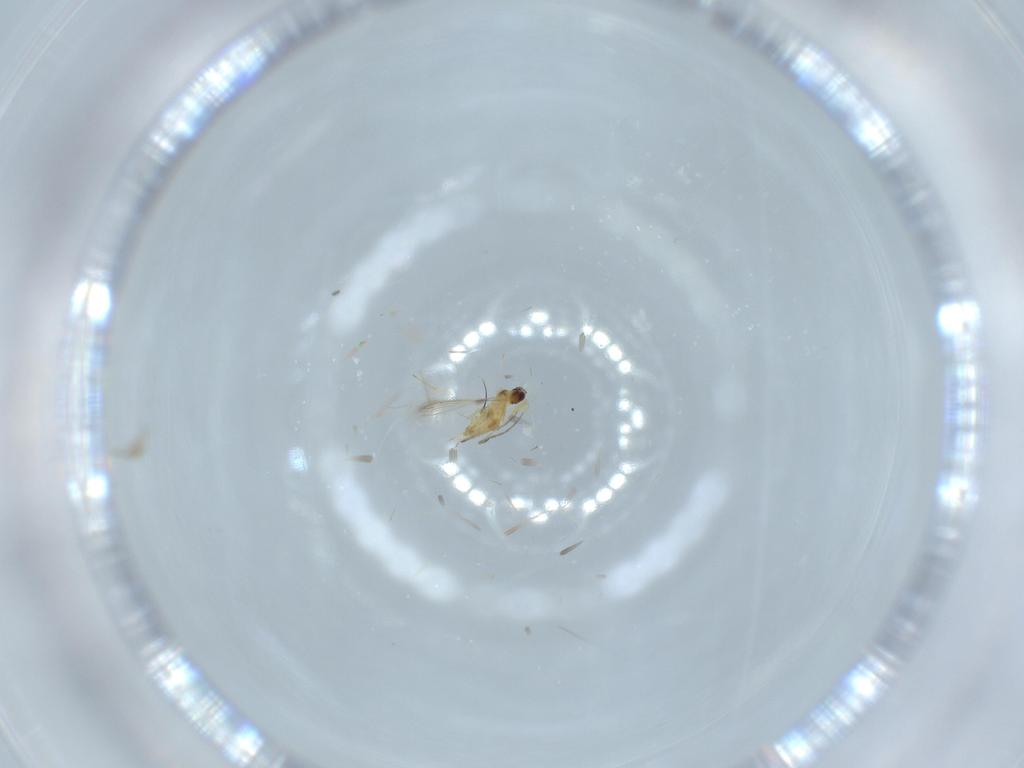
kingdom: Animalia
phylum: Arthropoda
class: Insecta
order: Hymenoptera
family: Mymaridae
